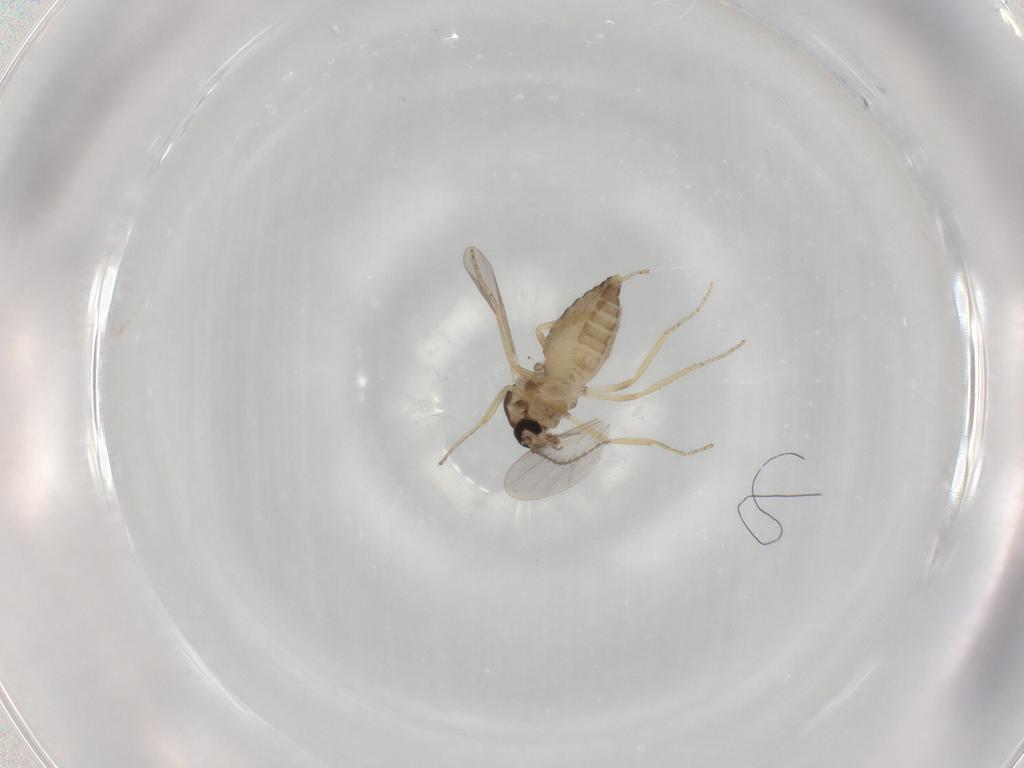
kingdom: Animalia
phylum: Arthropoda
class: Insecta
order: Diptera
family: Ceratopogonidae
